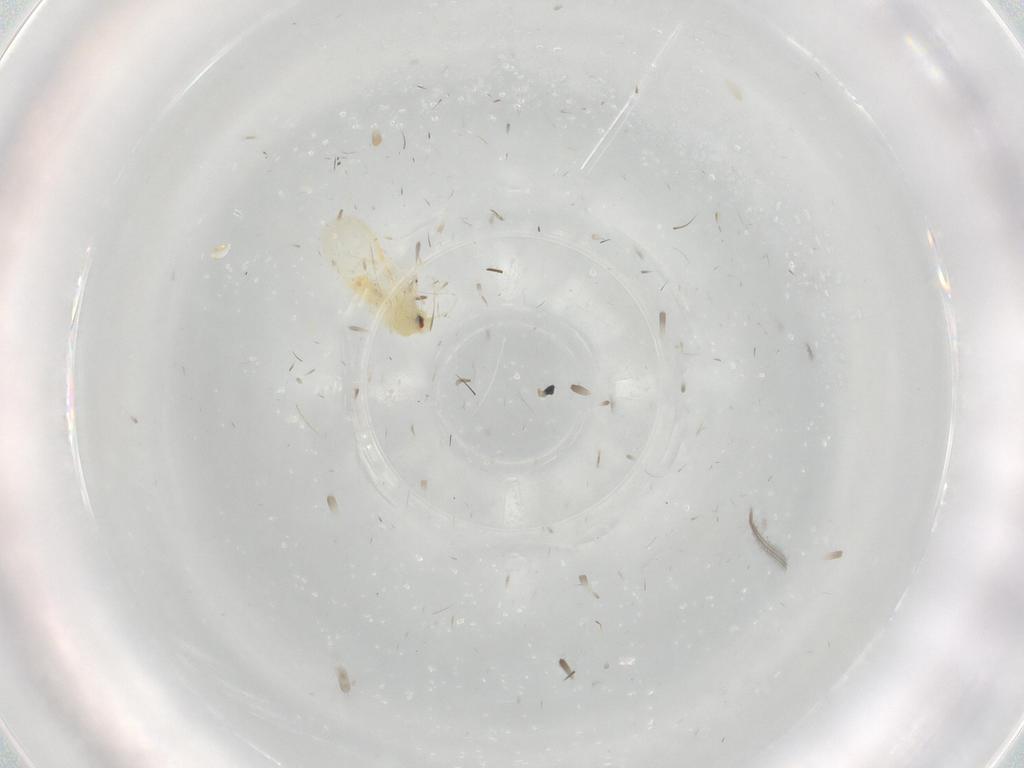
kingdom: Animalia
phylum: Arthropoda
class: Insecta
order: Hemiptera
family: Aleyrodidae
